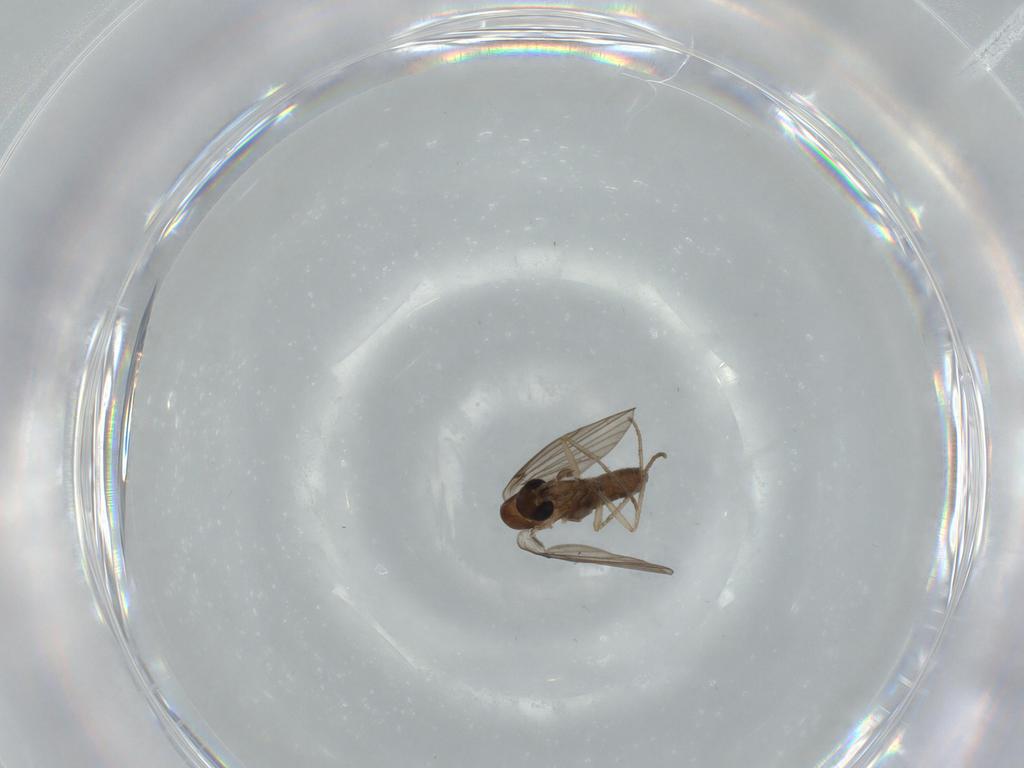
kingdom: Animalia
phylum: Arthropoda
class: Insecta
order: Diptera
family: Psychodidae
